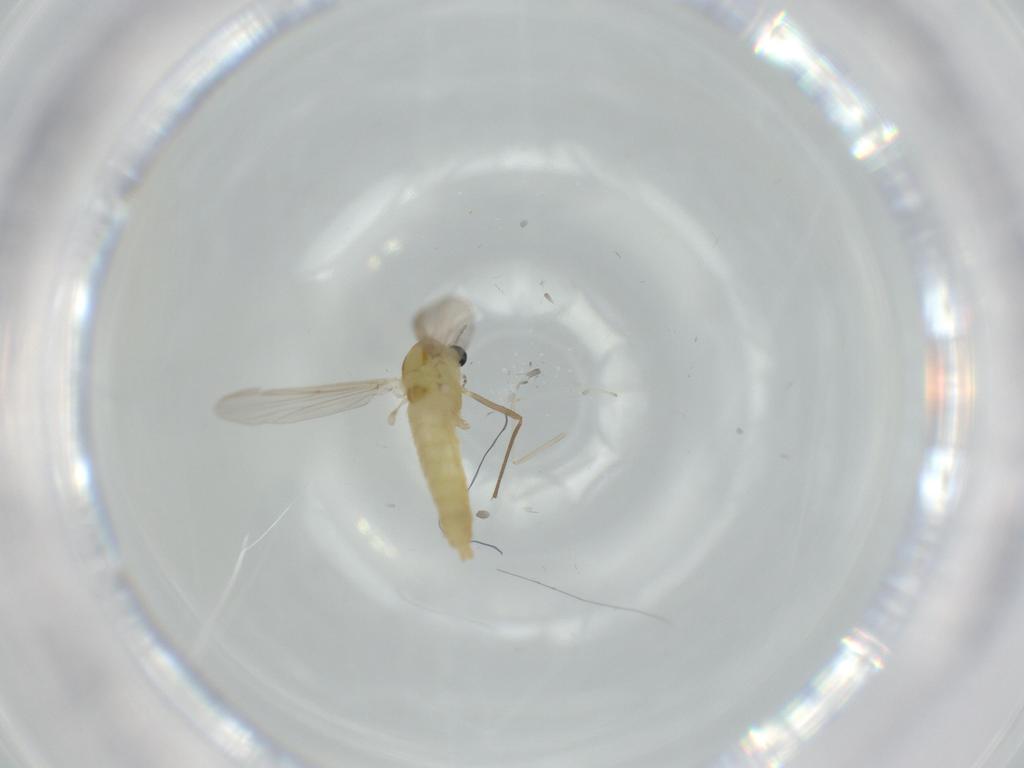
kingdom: Animalia
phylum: Arthropoda
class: Insecta
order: Diptera
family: Chironomidae
